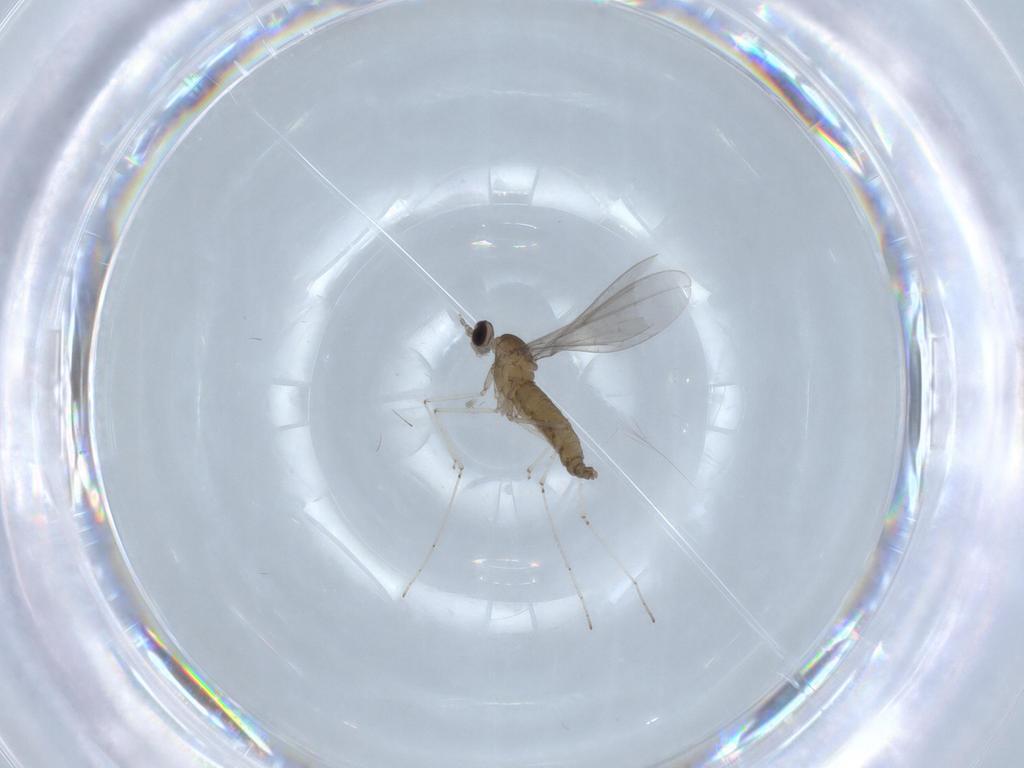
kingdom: Animalia
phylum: Arthropoda
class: Insecta
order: Diptera
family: Cecidomyiidae
